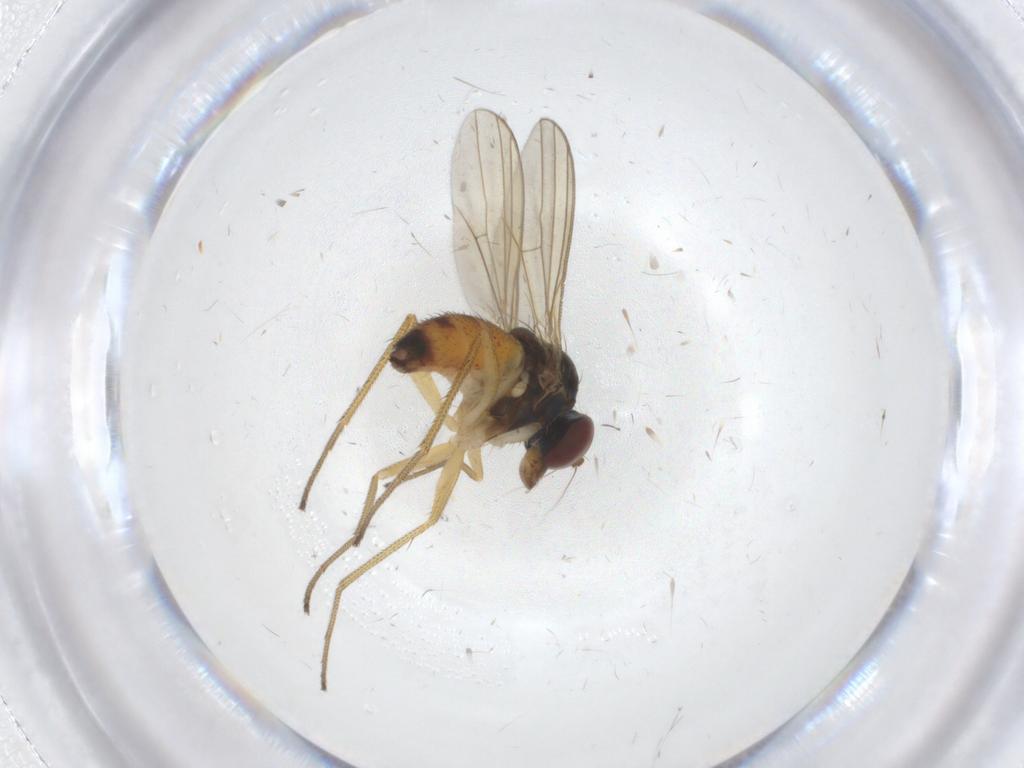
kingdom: Animalia
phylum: Arthropoda
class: Insecta
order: Diptera
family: Dolichopodidae
